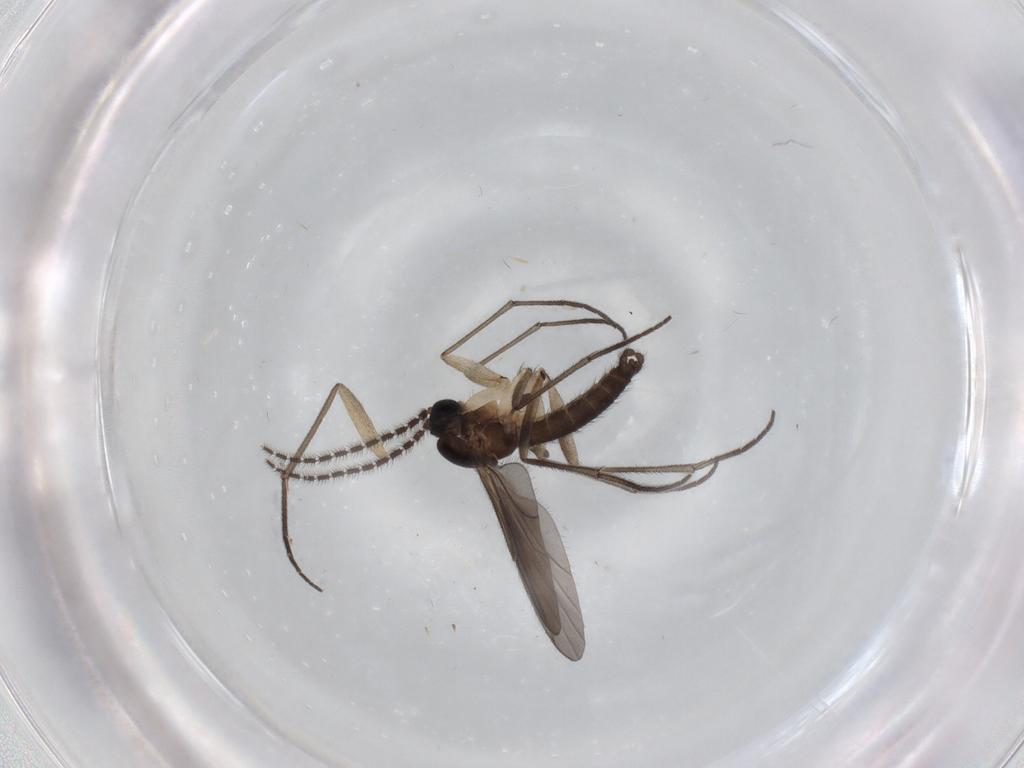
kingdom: Animalia
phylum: Arthropoda
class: Insecta
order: Diptera
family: Sciaridae
